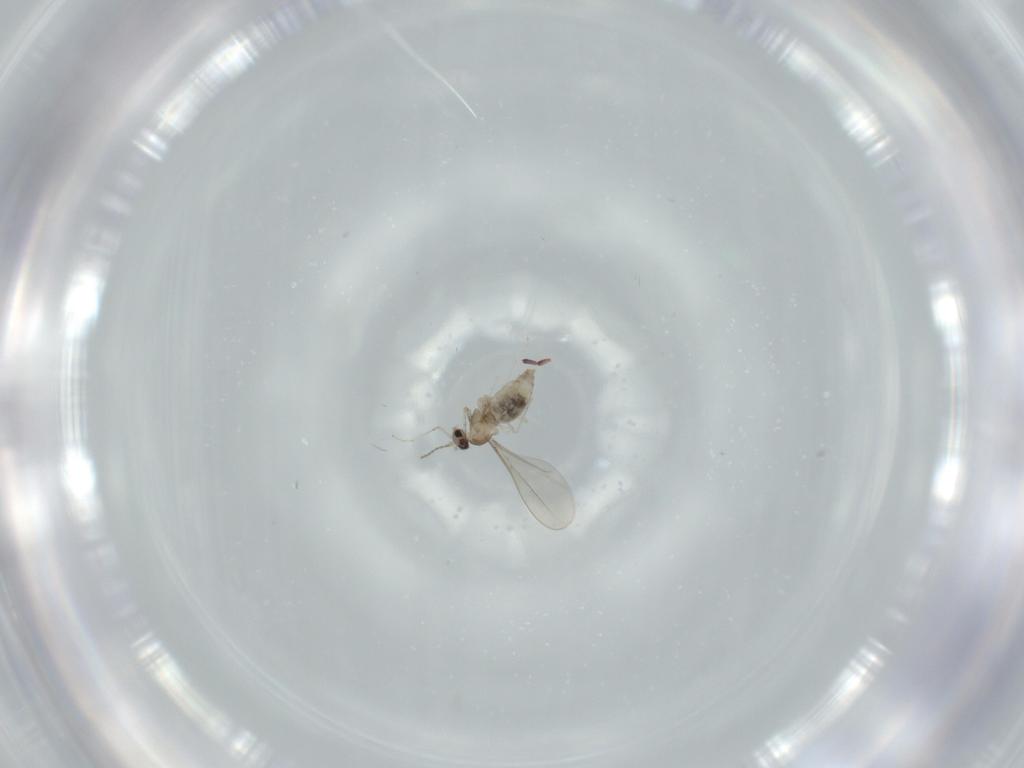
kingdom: Animalia
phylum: Arthropoda
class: Insecta
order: Diptera
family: Cecidomyiidae
